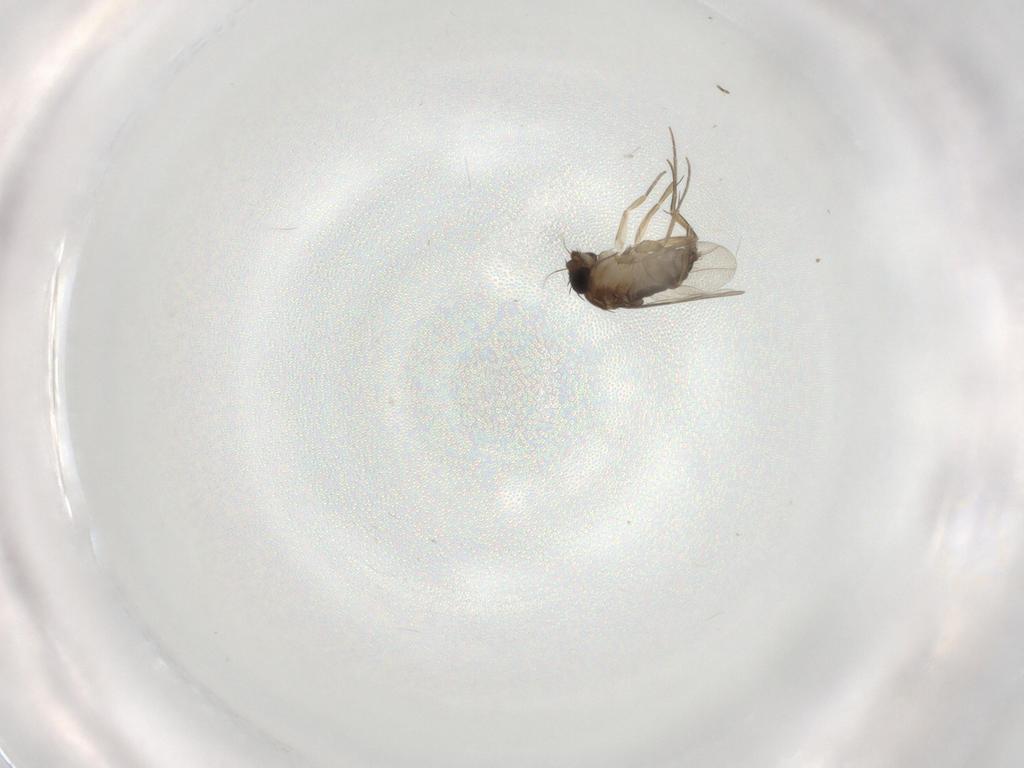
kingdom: Animalia
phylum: Arthropoda
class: Insecta
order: Diptera
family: Phoridae
